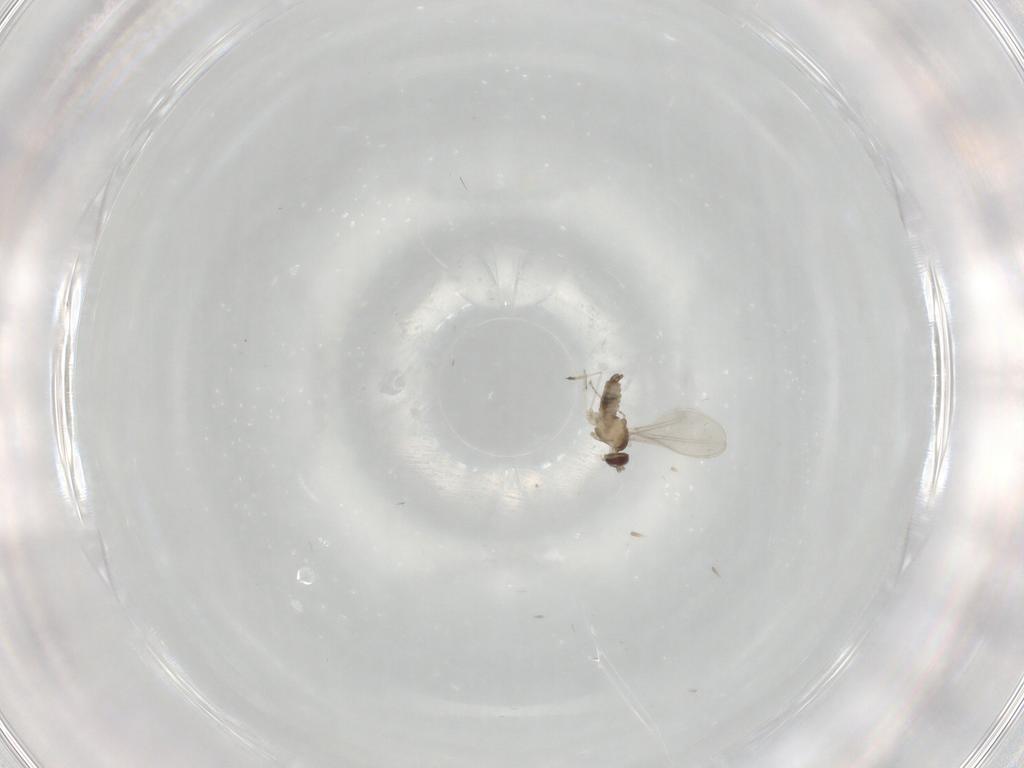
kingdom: Animalia
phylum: Arthropoda
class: Insecta
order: Diptera
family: Cecidomyiidae
